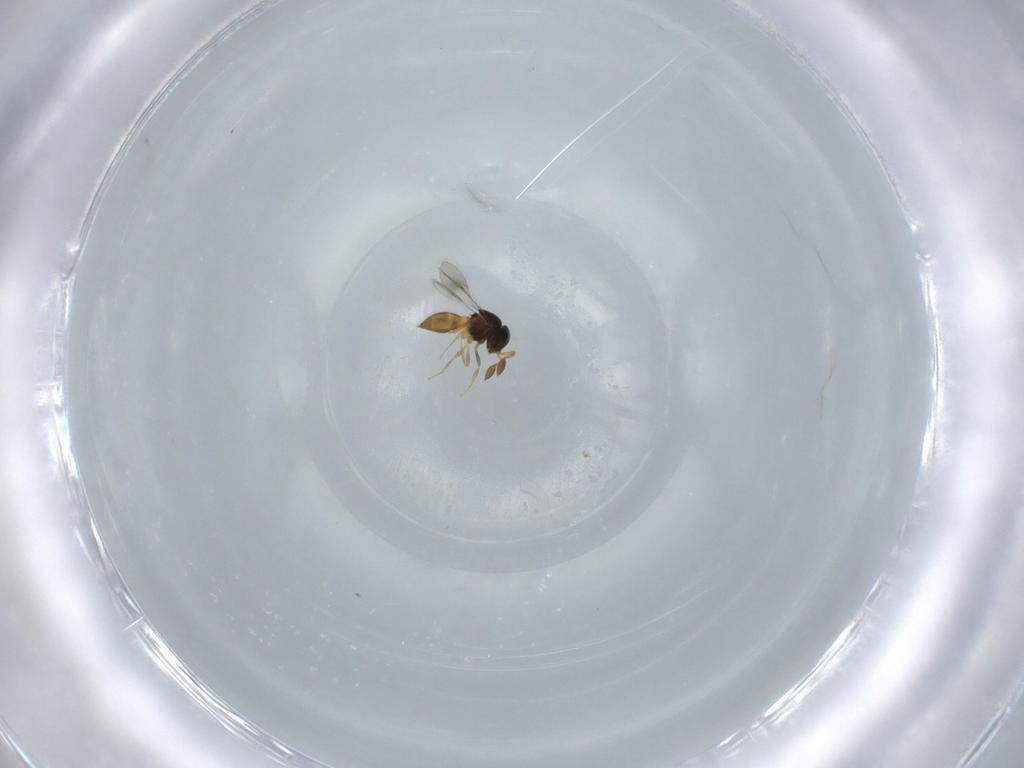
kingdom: Animalia
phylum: Arthropoda
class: Insecta
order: Hymenoptera
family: Scelionidae
